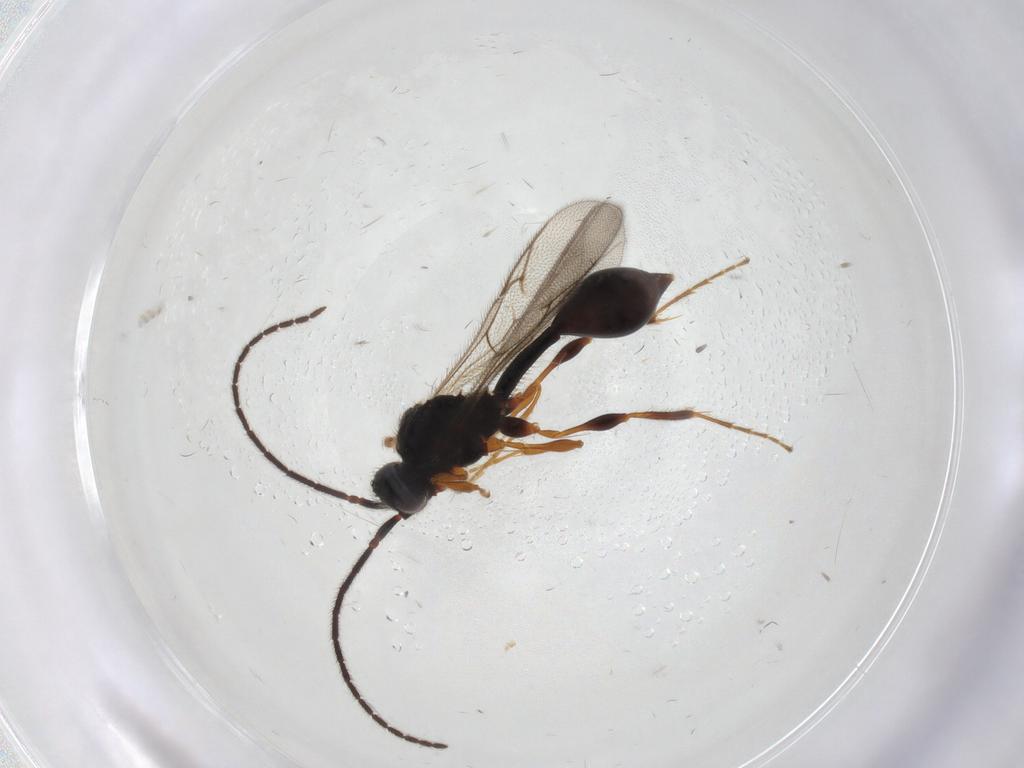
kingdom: Animalia
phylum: Arthropoda
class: Insecta
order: Hymenoptera
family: Diapriidae
